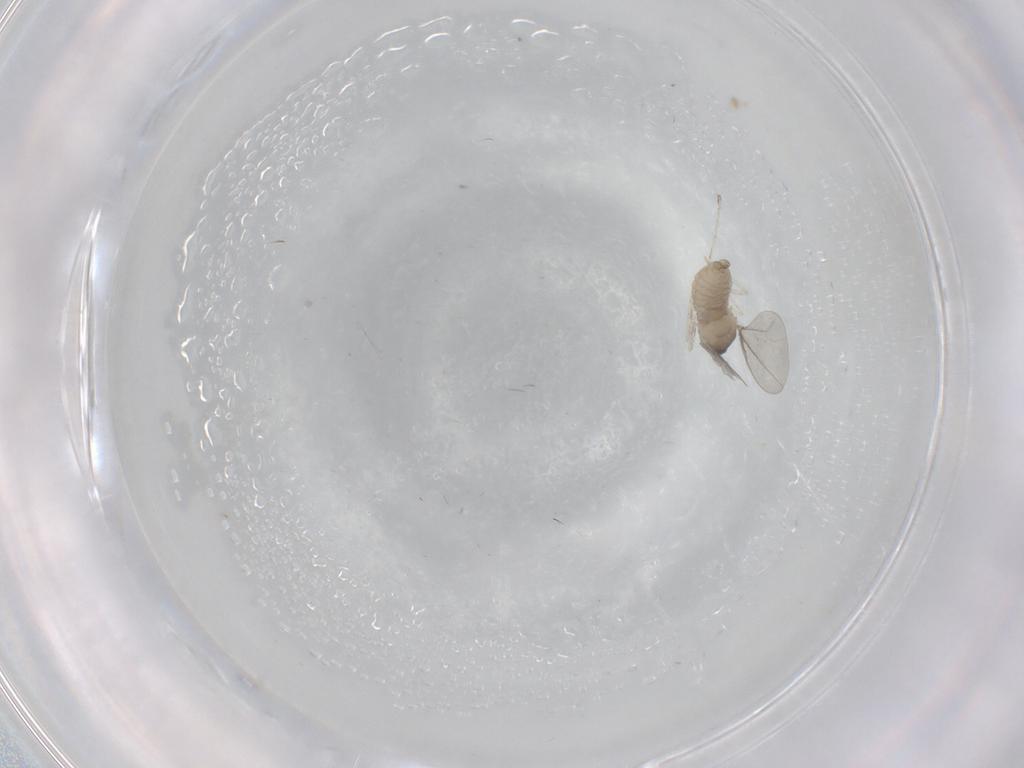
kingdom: Animalia
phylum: Arthropoda
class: Insecta
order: Diptera
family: Cecidomyiidae
